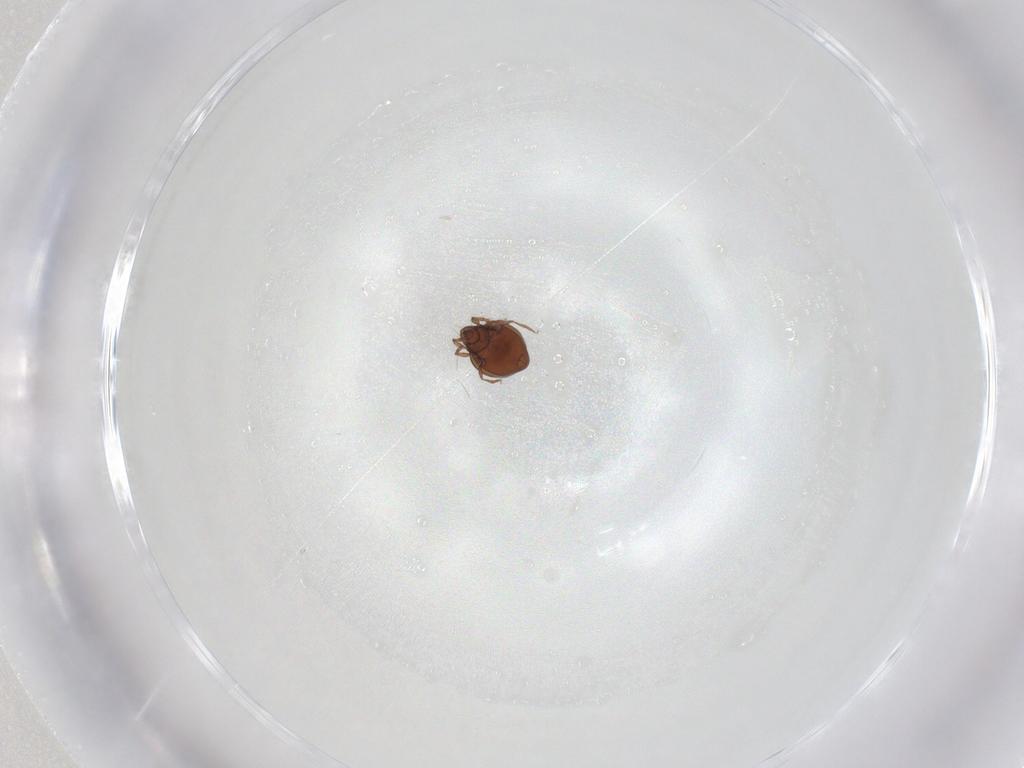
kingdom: Animalia
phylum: Arthropoda
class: Arachnida
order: Sarcoptiformes
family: Oribatulidae
